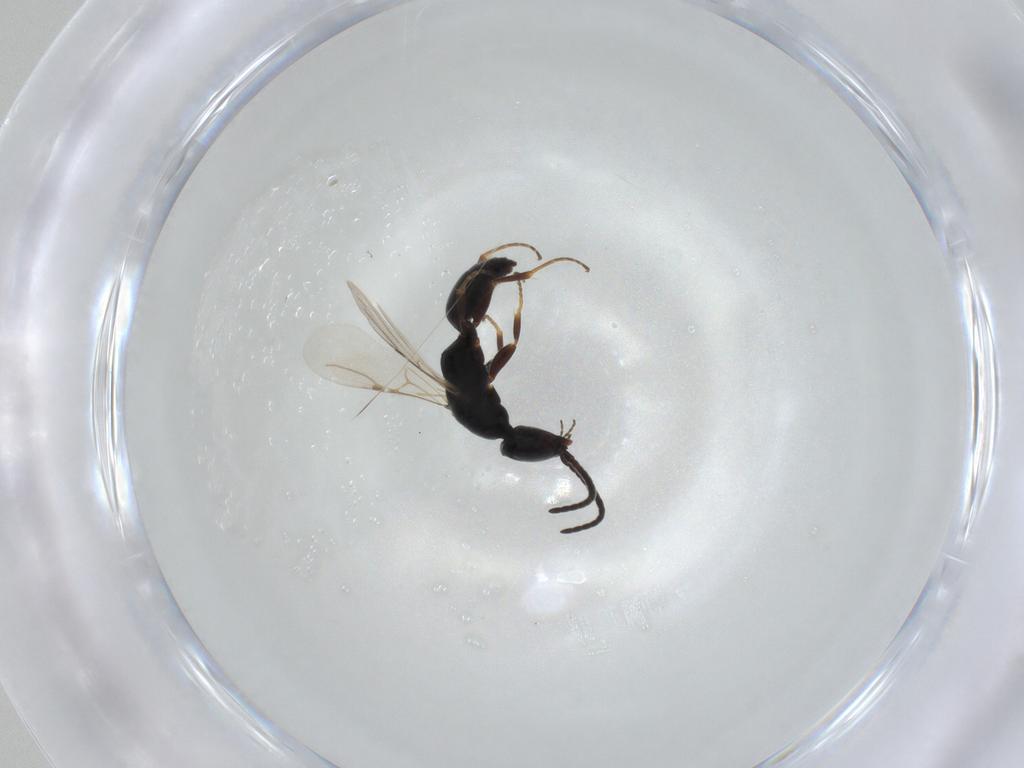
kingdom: Animalia
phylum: Arthropoda
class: Insecta
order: Hymenoptera
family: Bethylidae
